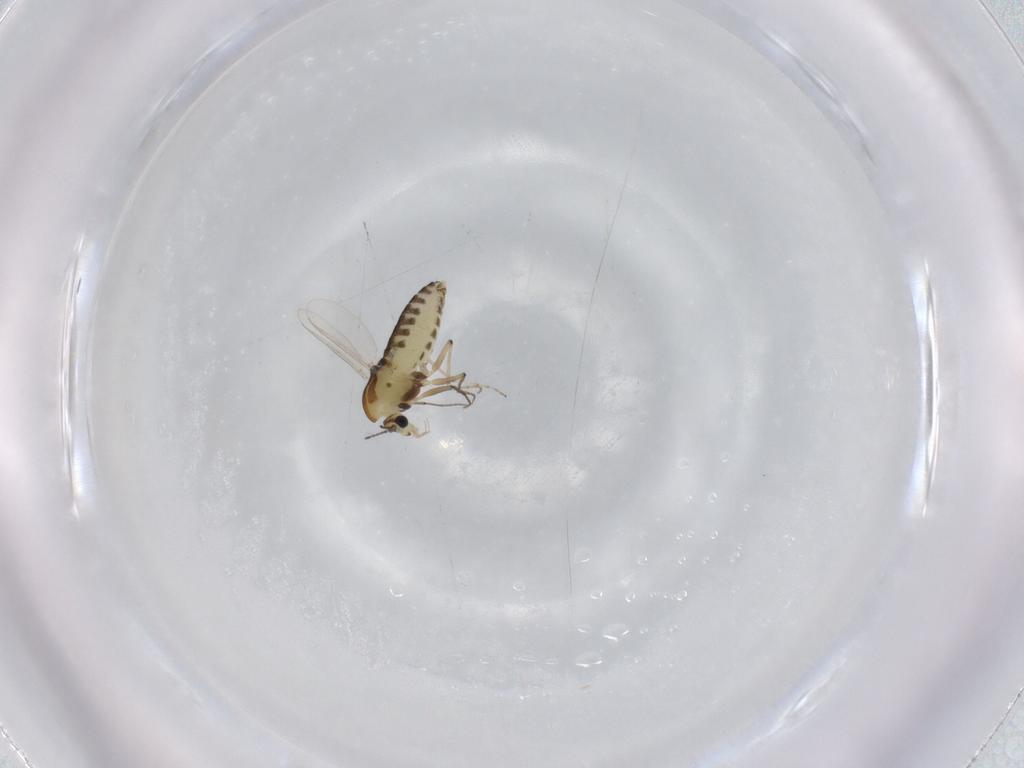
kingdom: Animalia
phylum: Arthropoda
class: Insecta
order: Diptera
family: Chironomidae
